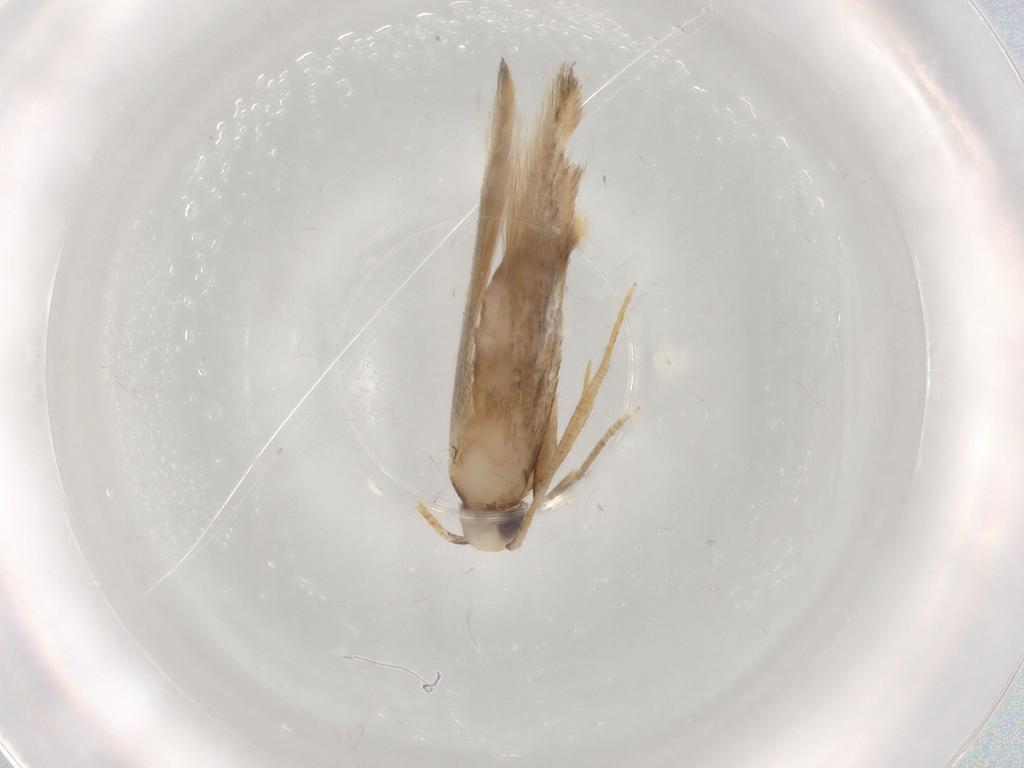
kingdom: Animalia
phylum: Arthropoda
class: Insecta
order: Lepidoptera
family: Coleophoridae
